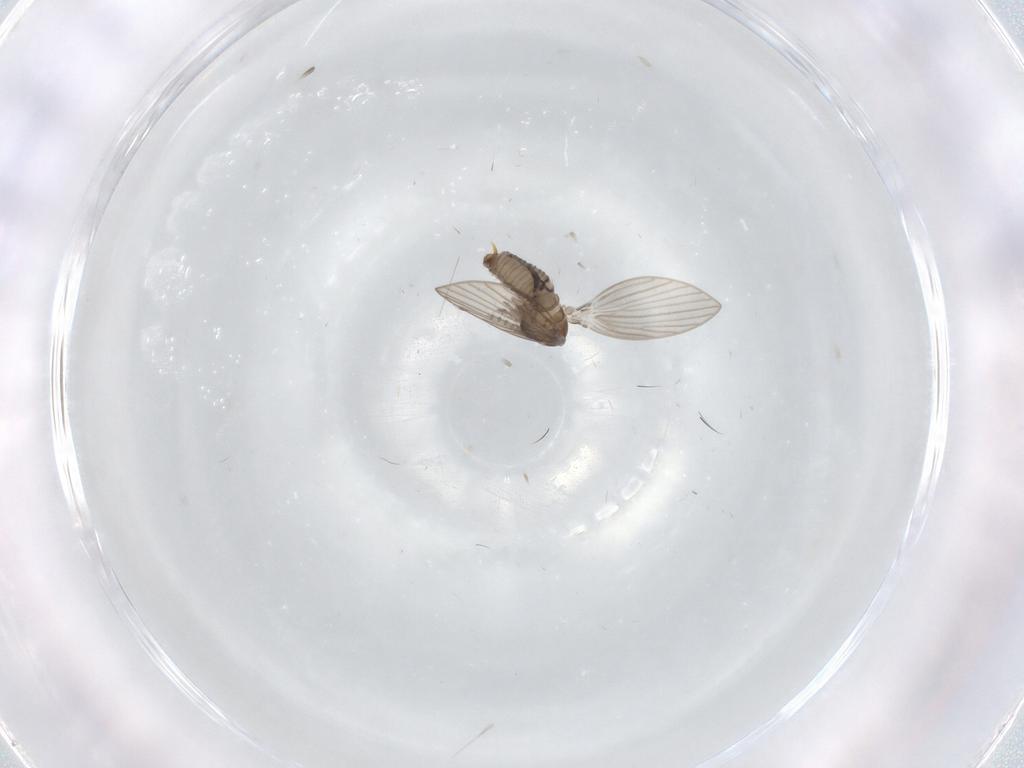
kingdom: Animalia
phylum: Arthropoda
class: Insecta
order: Diptera
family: Psychodidae
